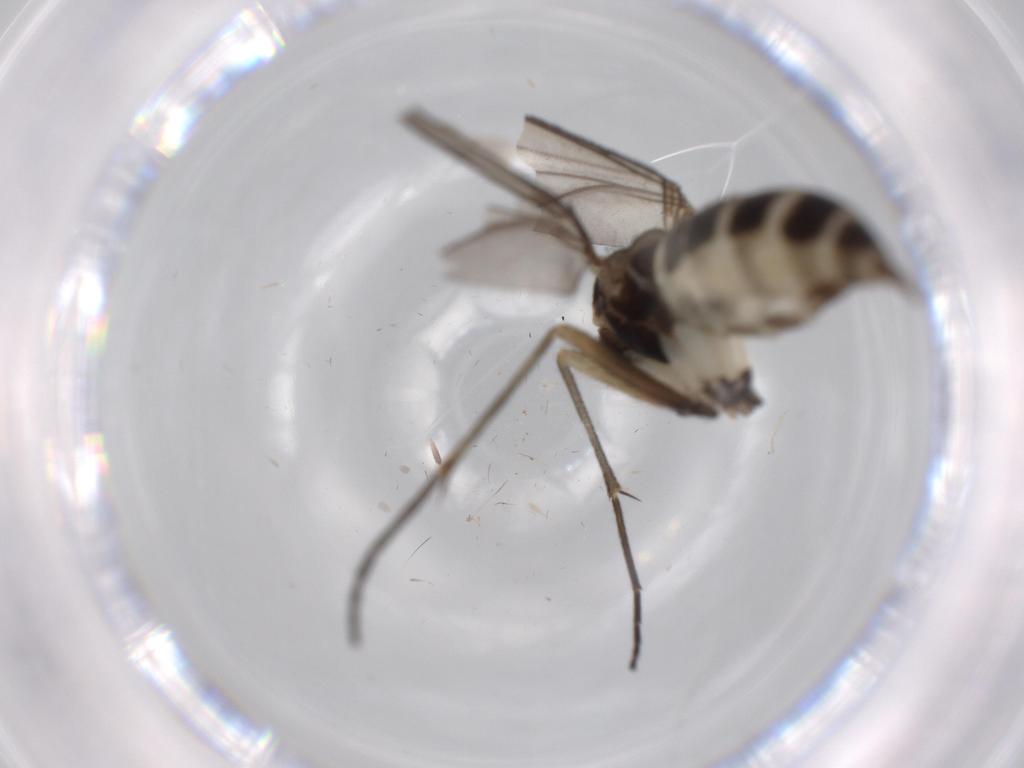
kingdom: Animalia
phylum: Arthropoda
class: Insecta
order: Diptera
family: Sciaridae
